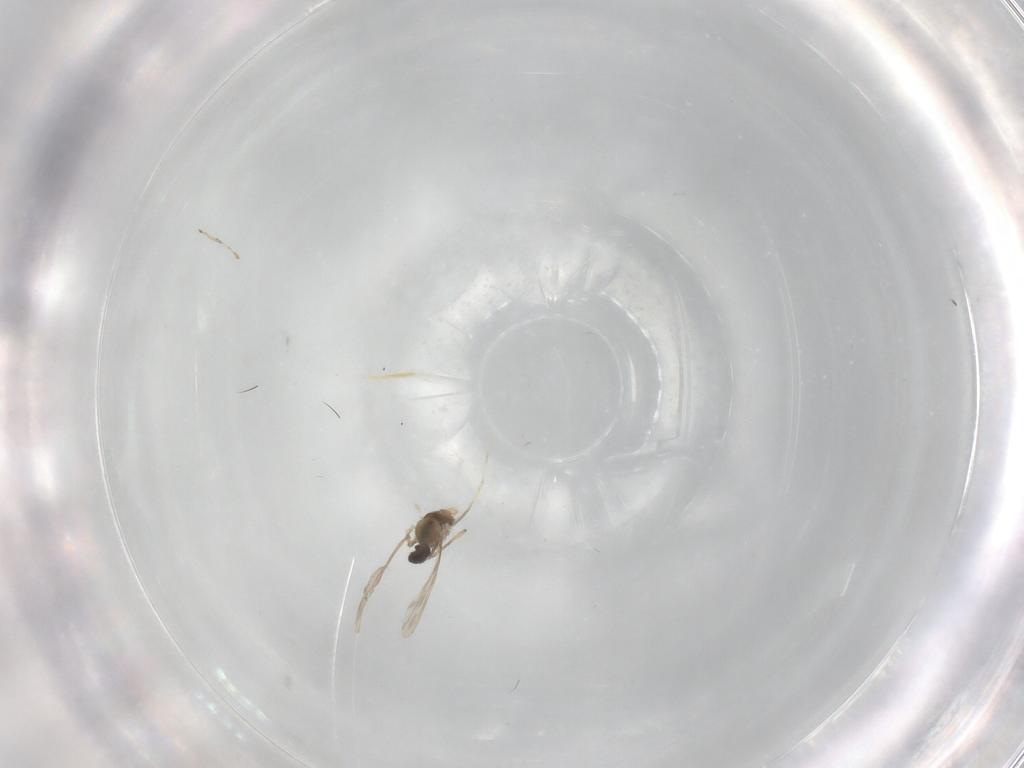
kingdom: Animalia
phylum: Arthropoda
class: Insecta
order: Diptera
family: Cecidomyiidae
